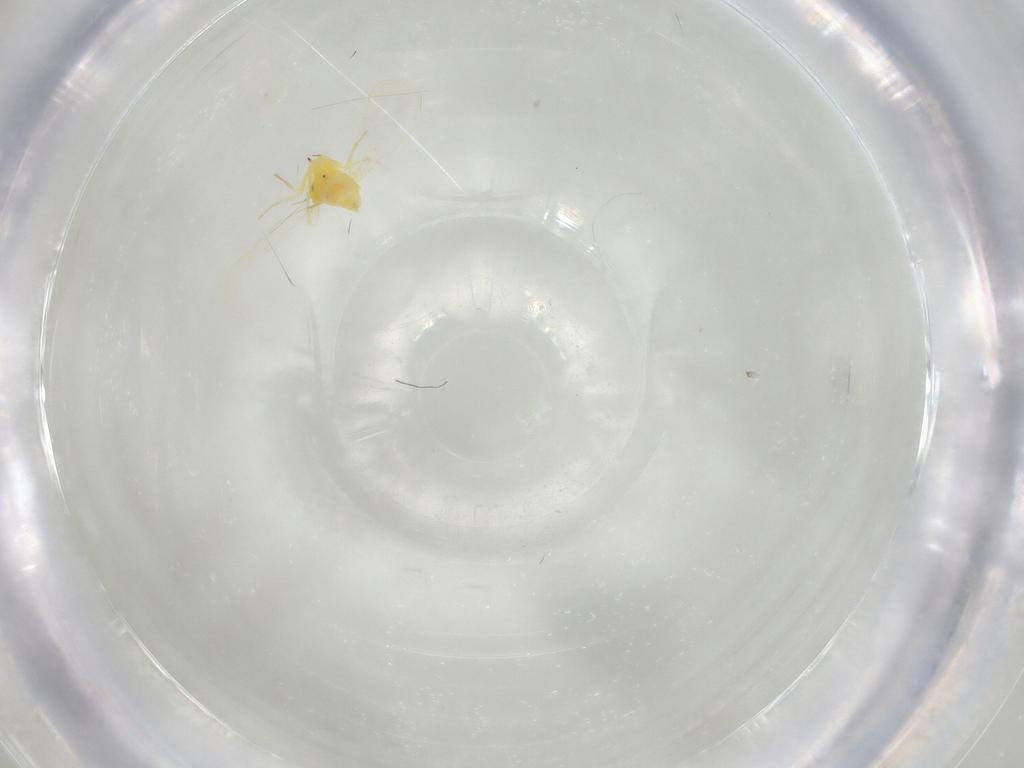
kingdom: Animalia
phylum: Arthropoda
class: Insecta
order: Hemiptera
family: Aleyrodidae
